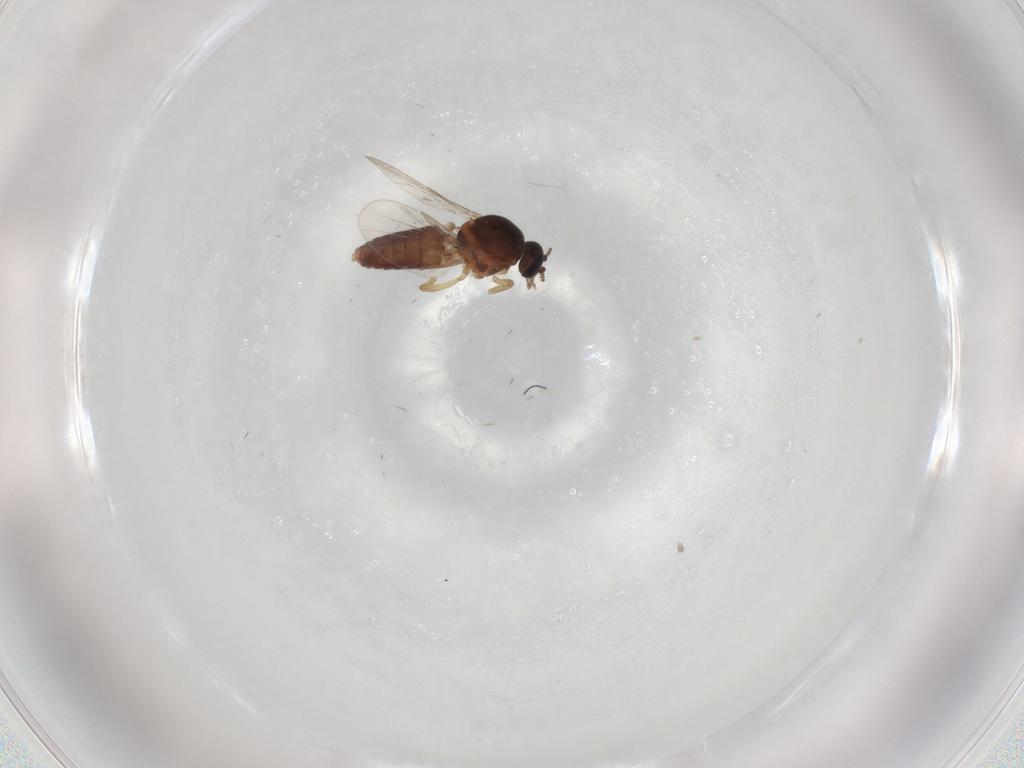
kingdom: Animalia
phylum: Arthropoda
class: Insecta
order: Diptera
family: Ceratopogonidae
